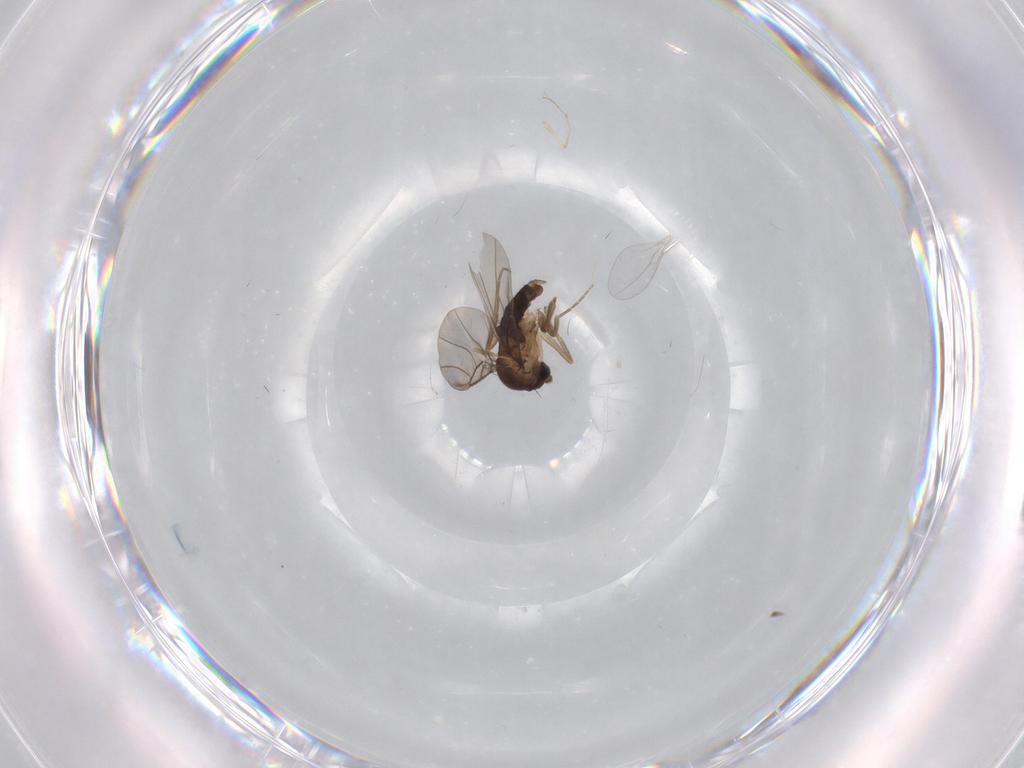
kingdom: Animalia
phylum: Arthropoda
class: Insecta
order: Diptera
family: Phoridae
